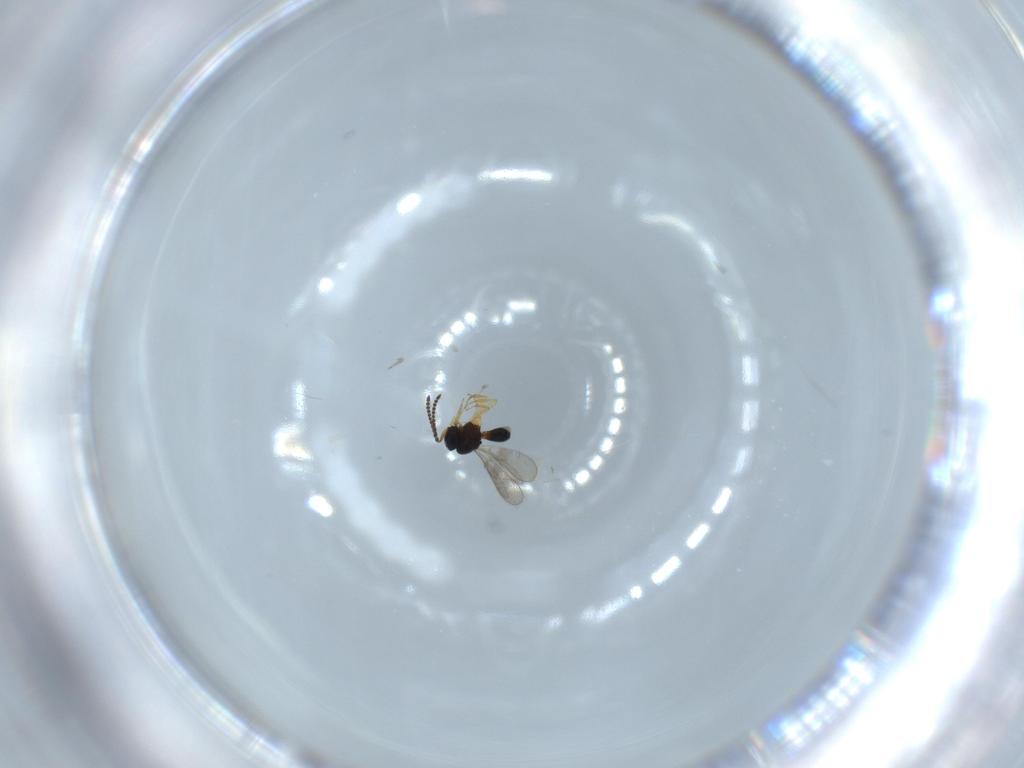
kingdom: Animalia
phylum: Arthropoda
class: Insecta
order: Hymenoptera
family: Scelionidae
